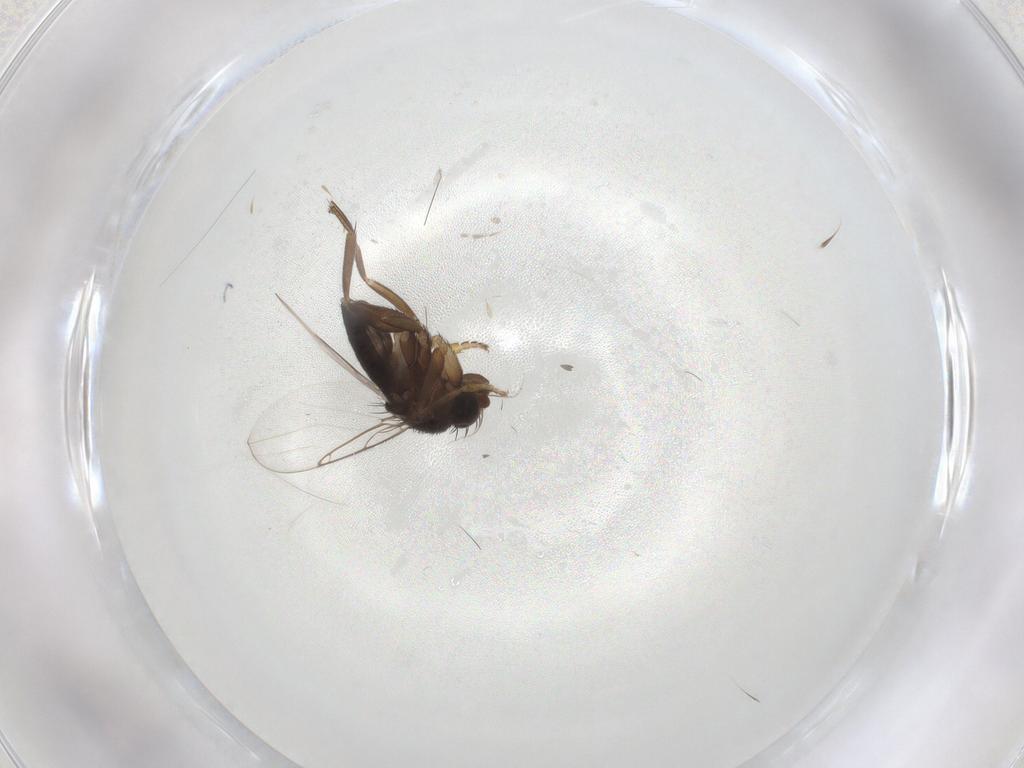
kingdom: Animalia
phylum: Arthropoda
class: Insecta
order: Diptera
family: Phoridae
